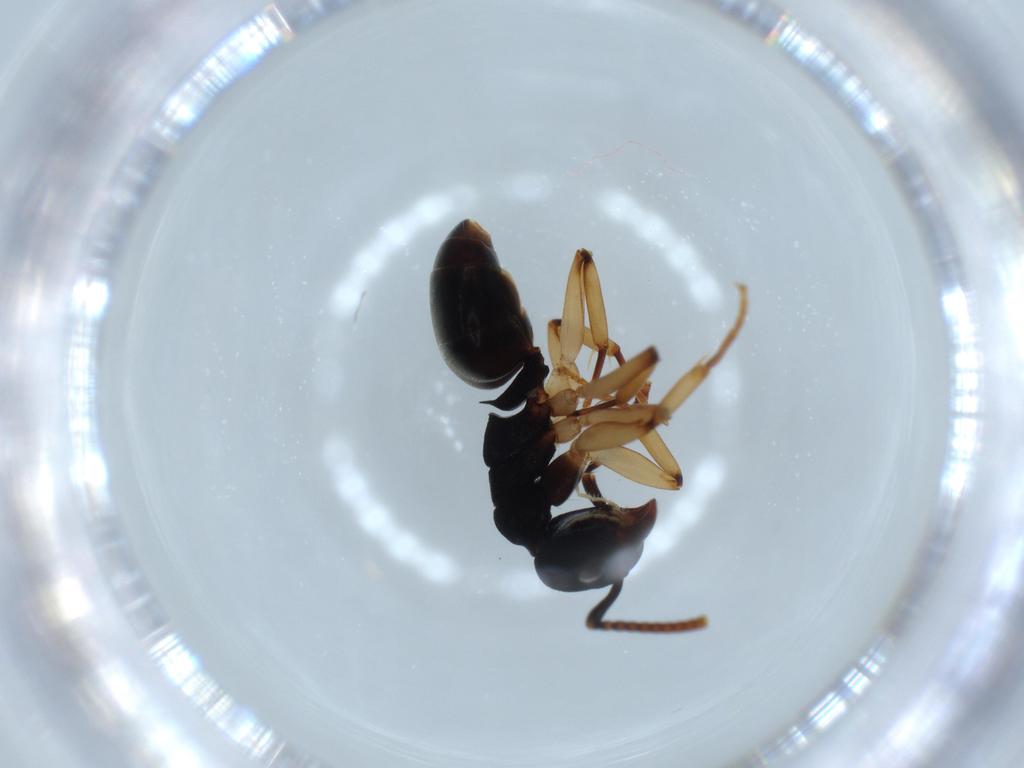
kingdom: Animalia
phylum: Arthropoda
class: Insecta
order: Hymenoptera
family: Formicidae
